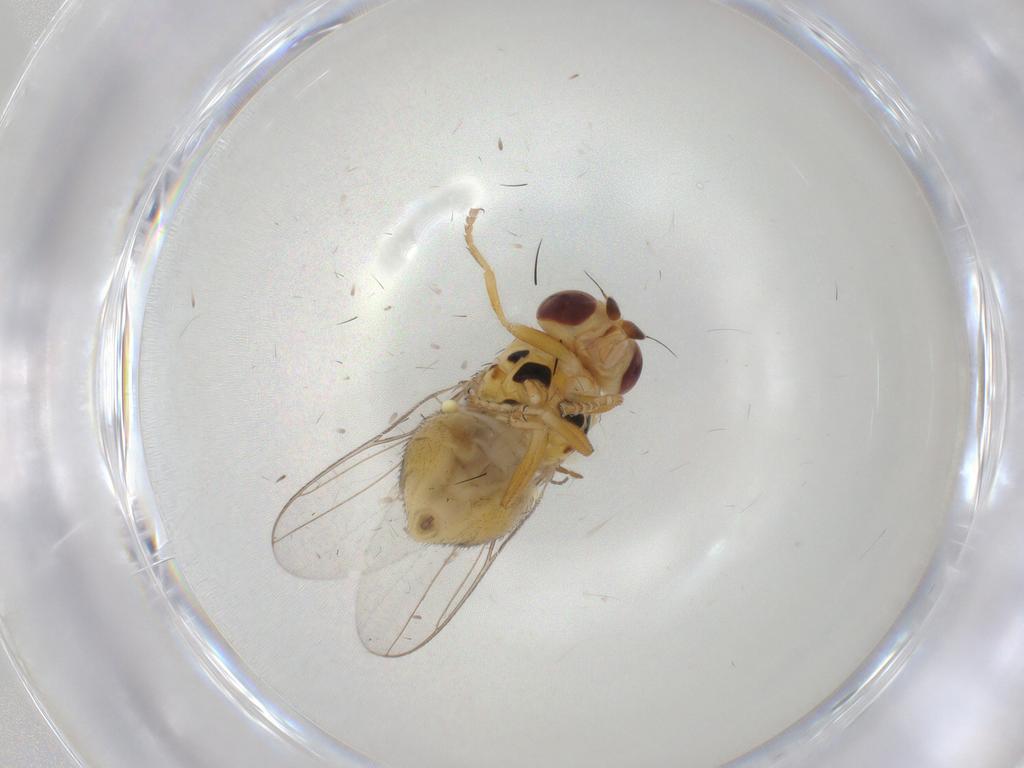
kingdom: Animalia
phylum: Arthropoda
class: Insecta
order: Diptera
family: Chloropidae
